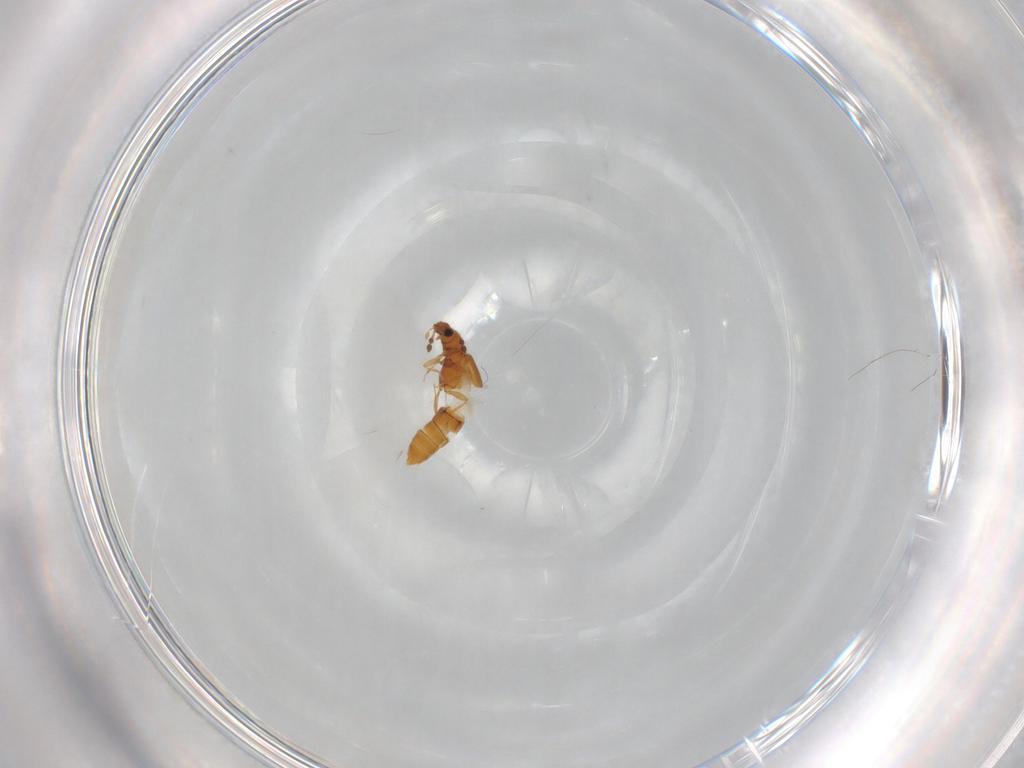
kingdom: Animalia
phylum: Arthropoda
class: Insecta
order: Coleoptera
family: Staphylinidae
